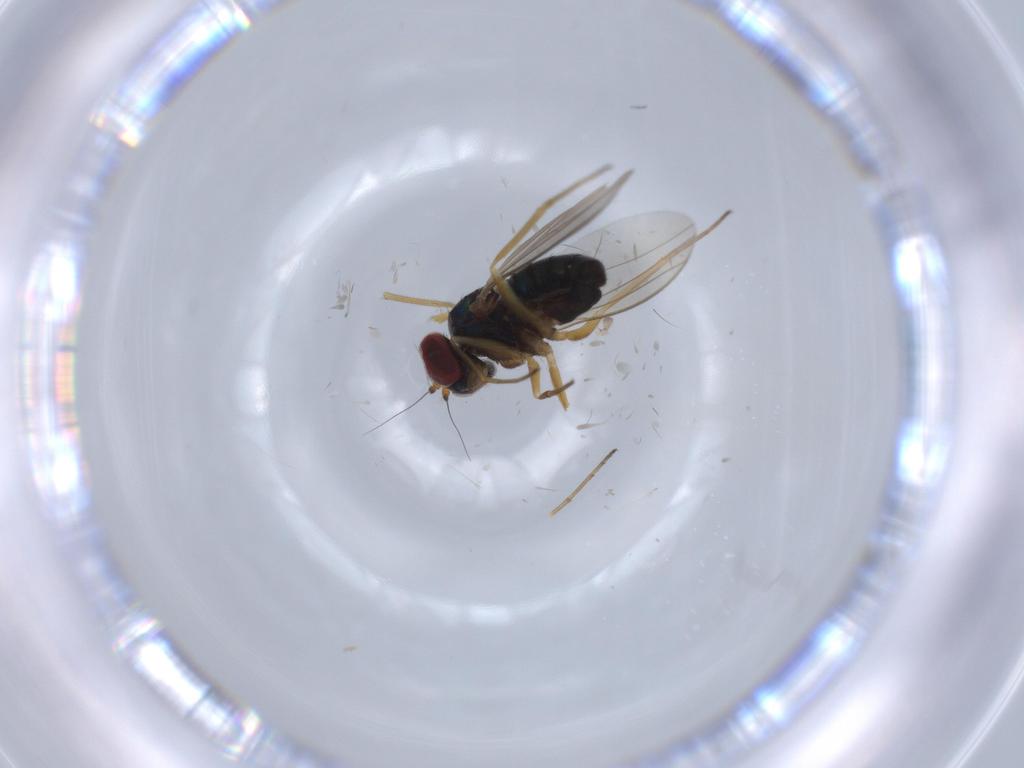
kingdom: Animalia
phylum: Arthropoda
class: Insecta
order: Diptera
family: Dolichopodidae
